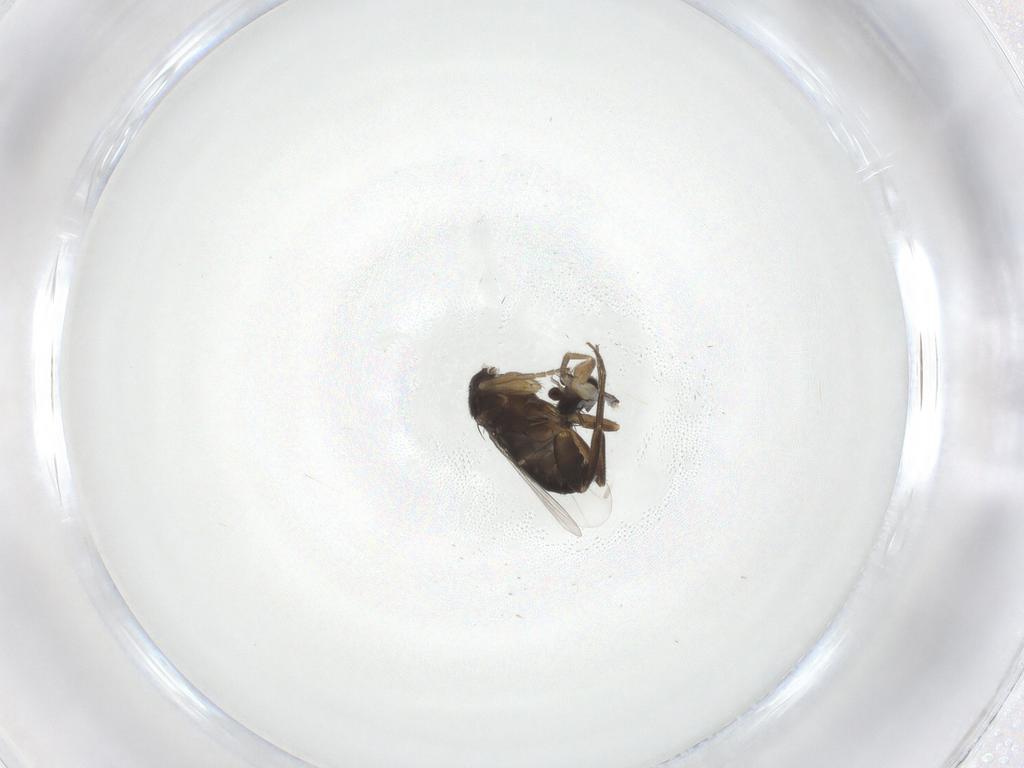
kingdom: Animalia
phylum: Arthropoda
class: Insecta
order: Diptera
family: Phoridae
